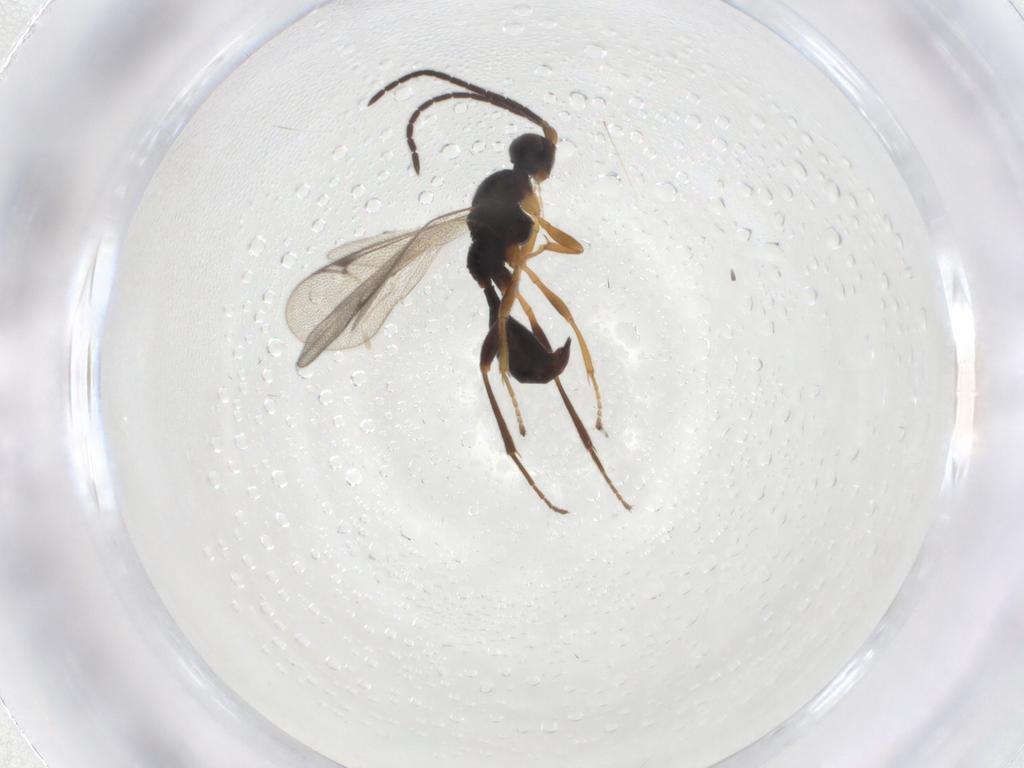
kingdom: Animalia
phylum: Arthropoda
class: Insecta
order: Hymenoptera
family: Proctotrupidae
